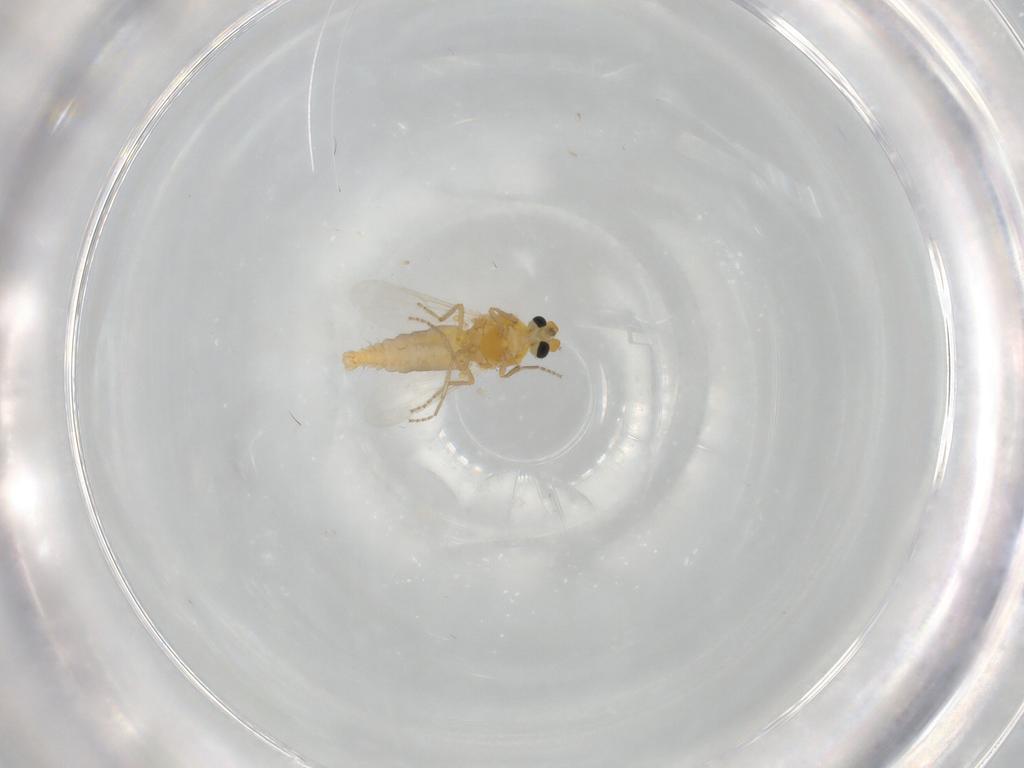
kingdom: Animalia
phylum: Arthropoda
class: Insecta
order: Diptera
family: Ceratopogonidae
